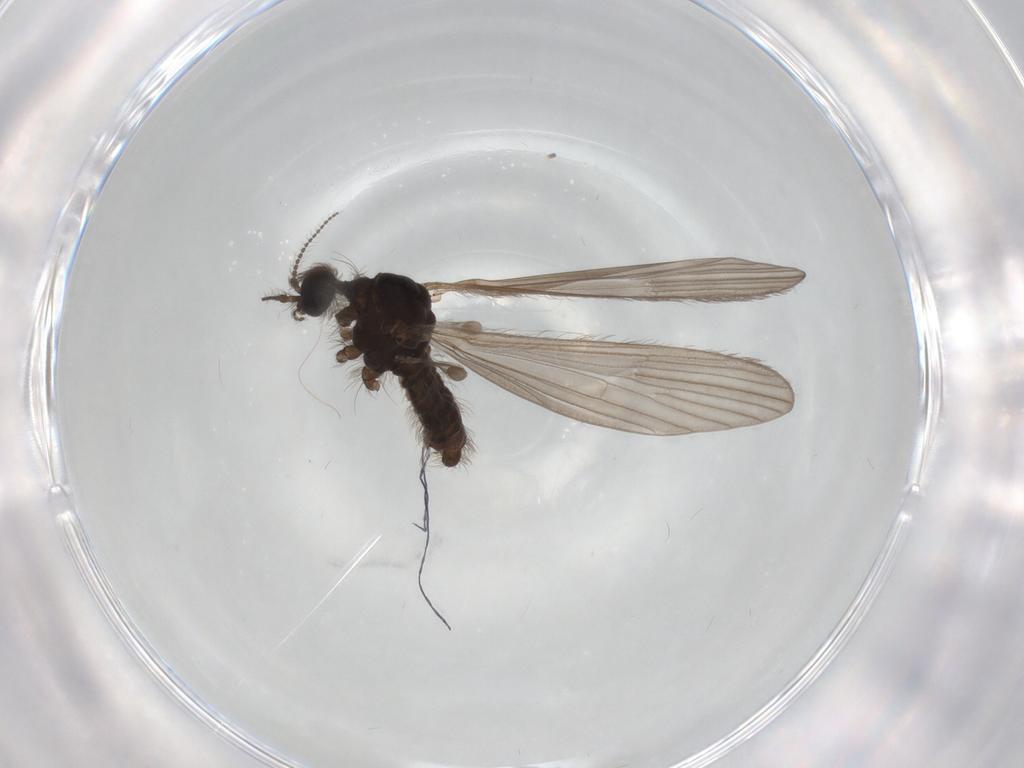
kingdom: Animalia
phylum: Arthropoda
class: Insecta
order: Diptera
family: Limoniidae
